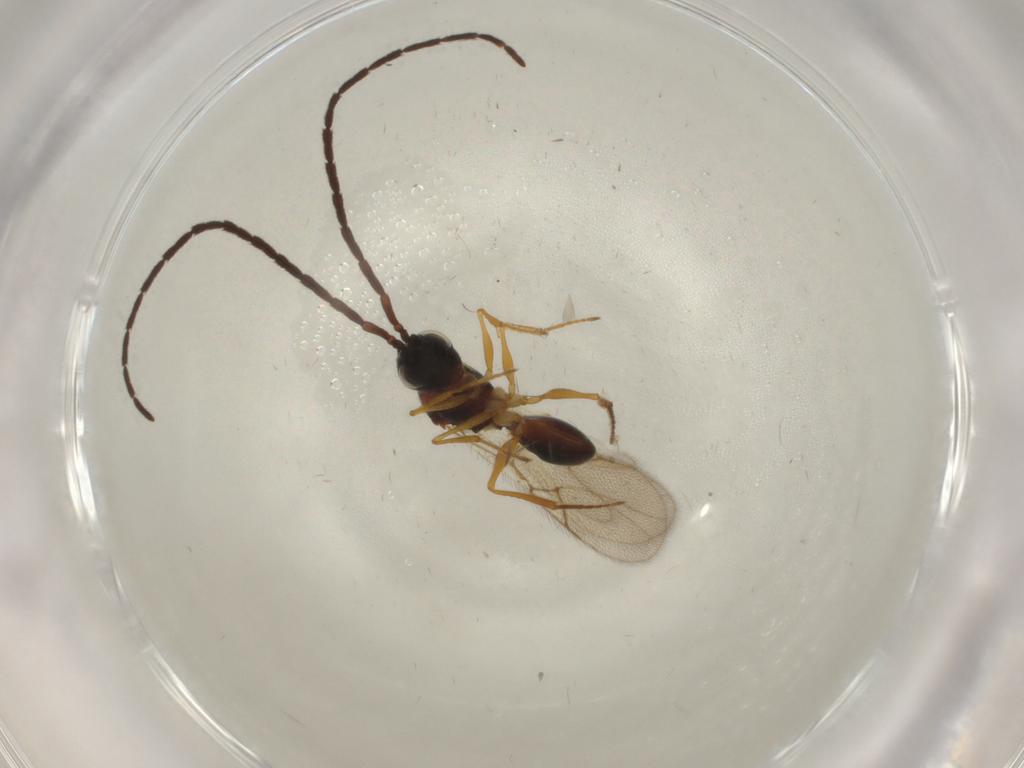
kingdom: Animalia
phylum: Arthropoda
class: Insecta
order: Hymenoptera
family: Figitidae
